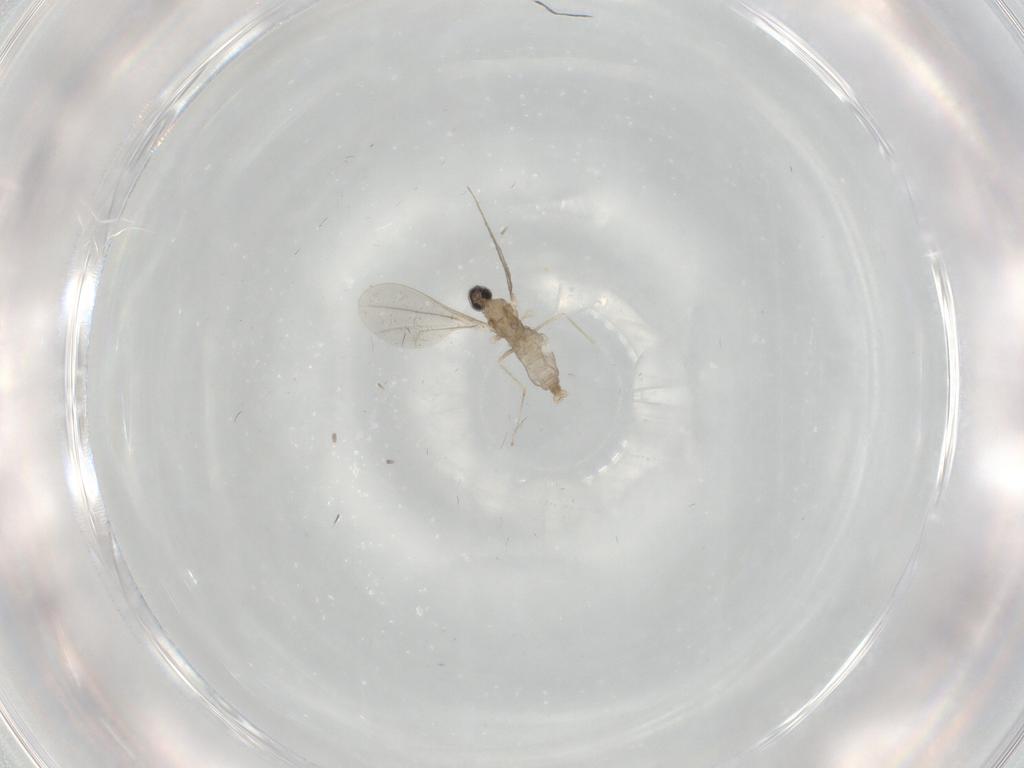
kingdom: Animalia
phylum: Arthropoda
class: Insecta
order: Diptera
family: Cecidomyiidae
